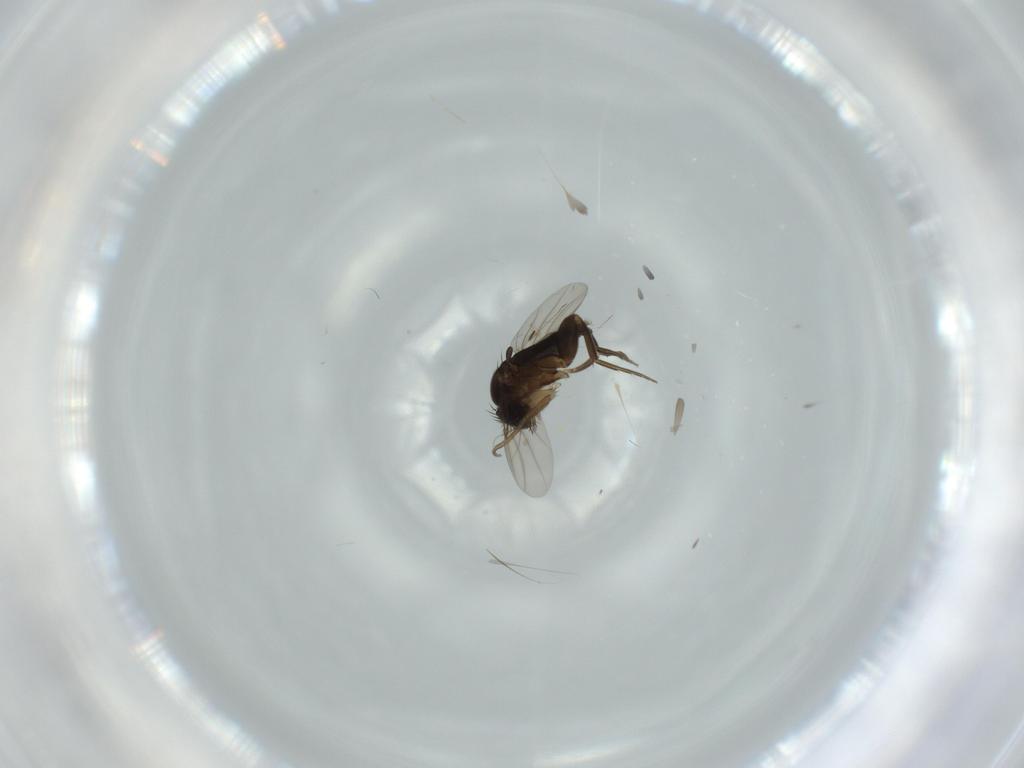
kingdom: Animalia
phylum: Arthropoda
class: Insecta
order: Diptera
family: Phoridae
